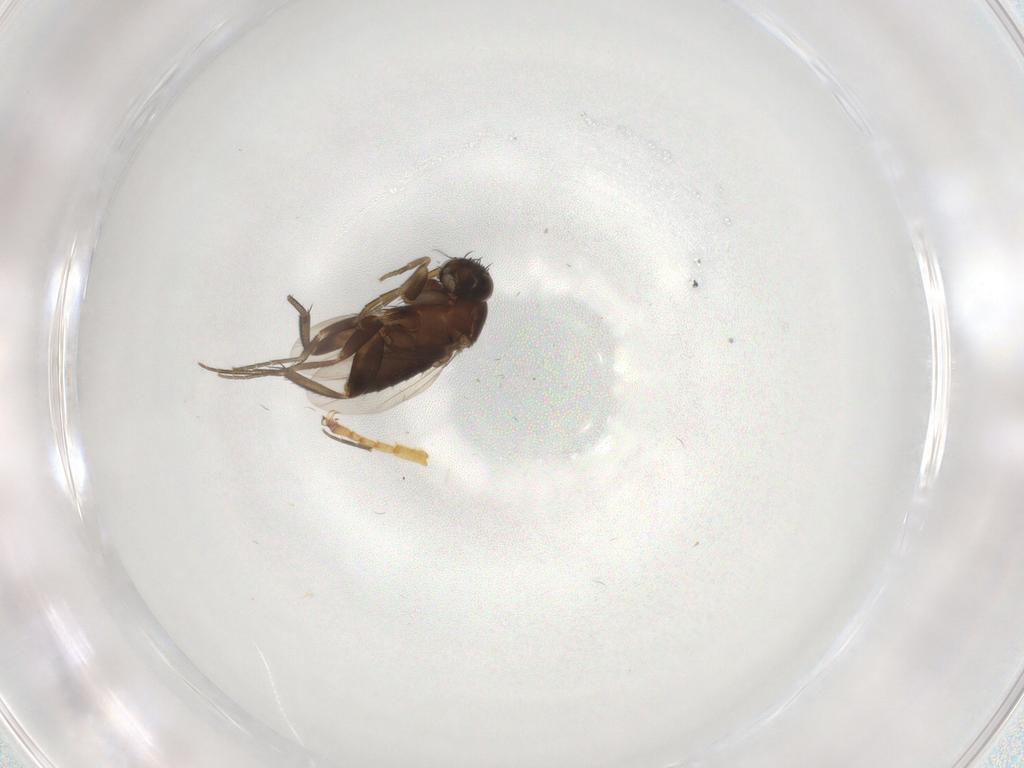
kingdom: Animalia
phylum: Arthropoda
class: Insecta
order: Diptera
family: Phoridae
